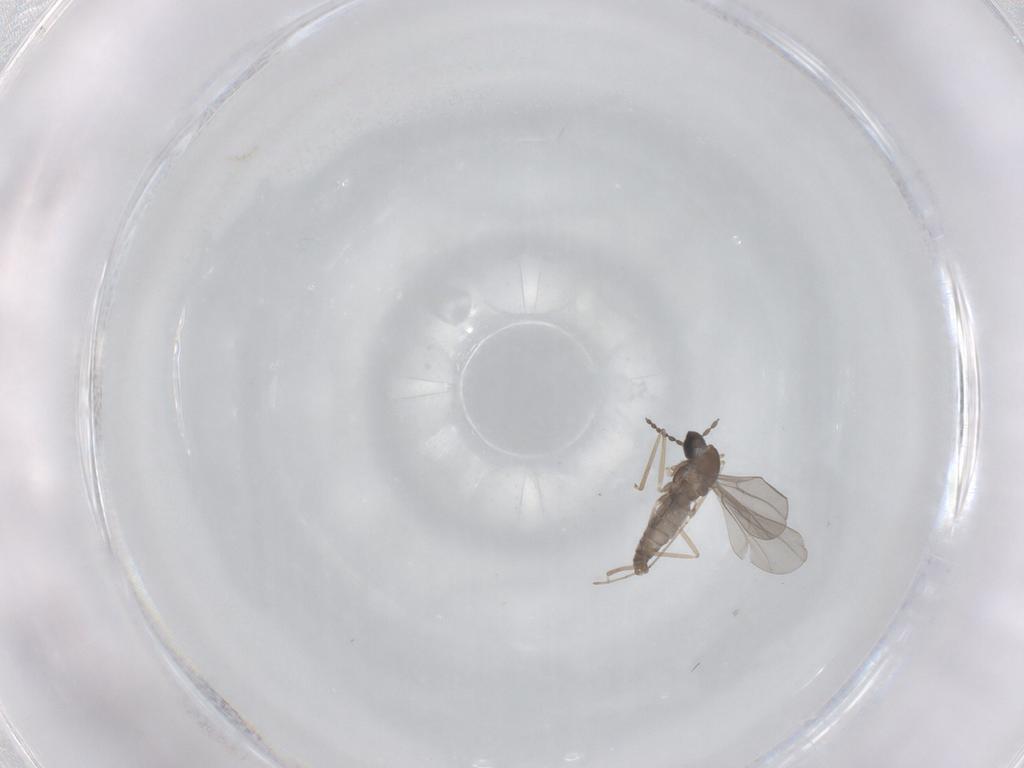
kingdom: Animalia
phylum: Arthropoda
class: Insecta
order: Diptera
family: Cecidomyiidae
